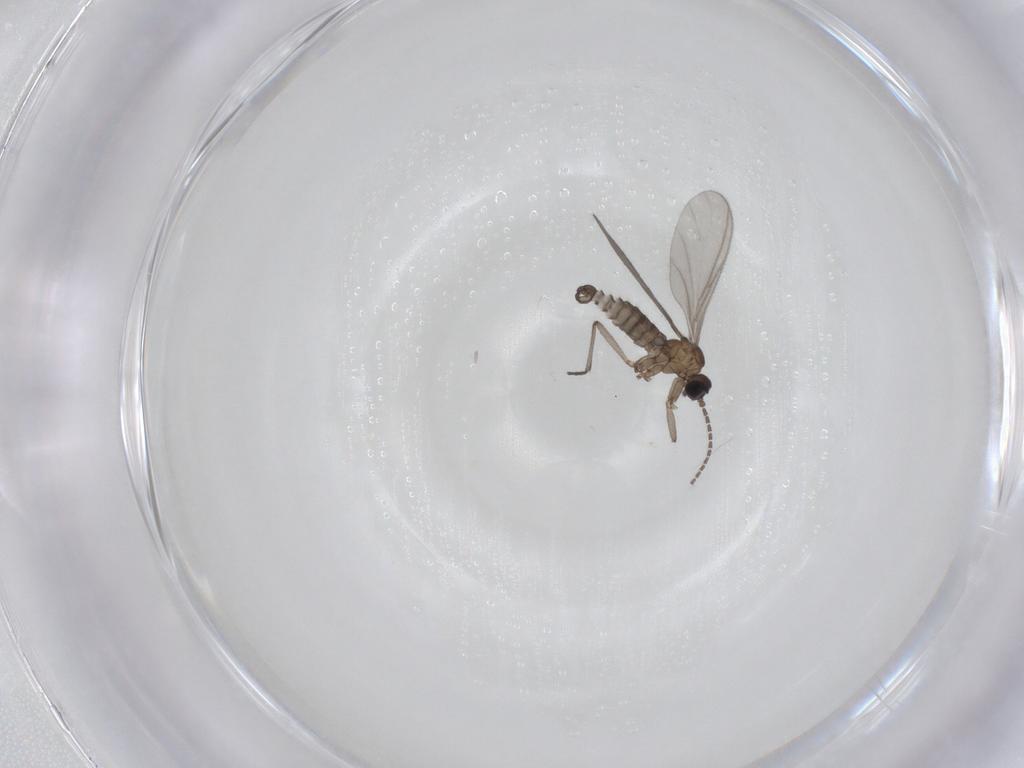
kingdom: Animalia
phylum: Arthropoda
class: Insecta
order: Diptera
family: Sciaridae
